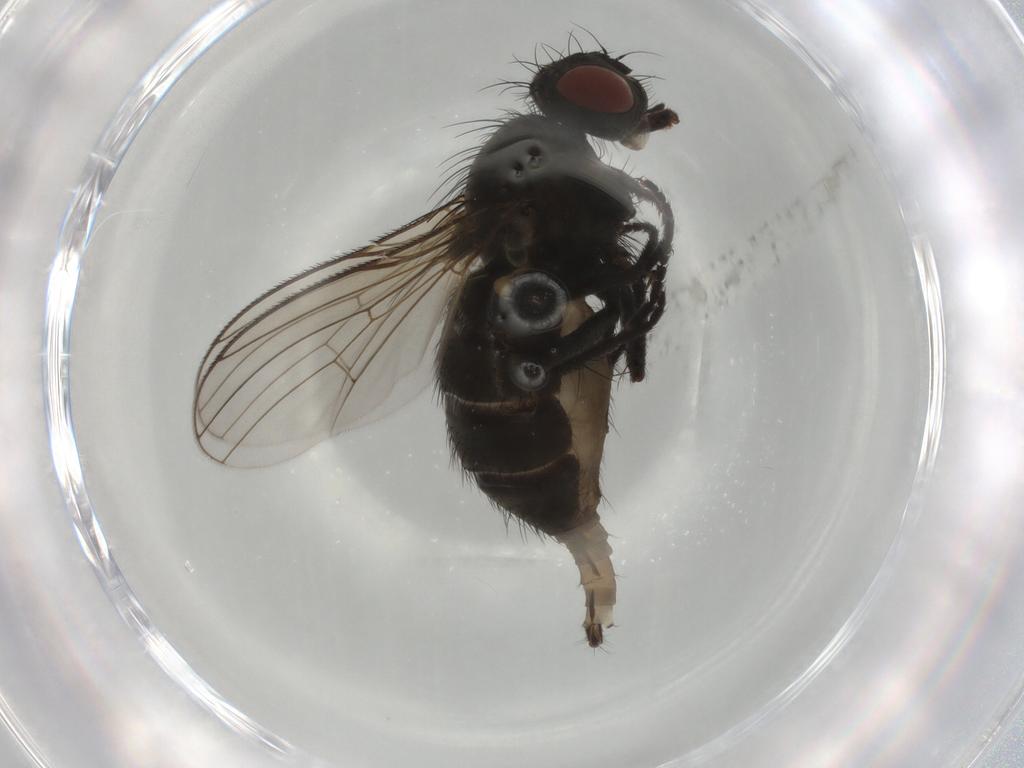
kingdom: Animalia
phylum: Arthropoda
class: Insecta
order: Diptera
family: Muscidae
